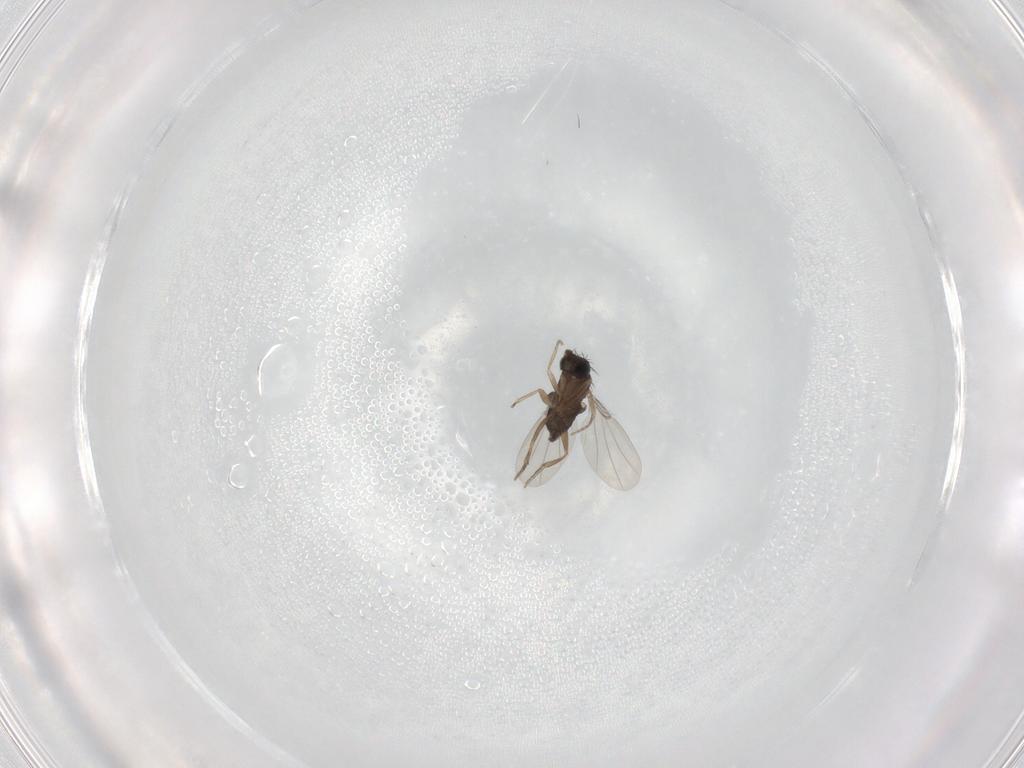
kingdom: Animalia
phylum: Arthropoda
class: Insecta
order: Diptera
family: Phoridae
